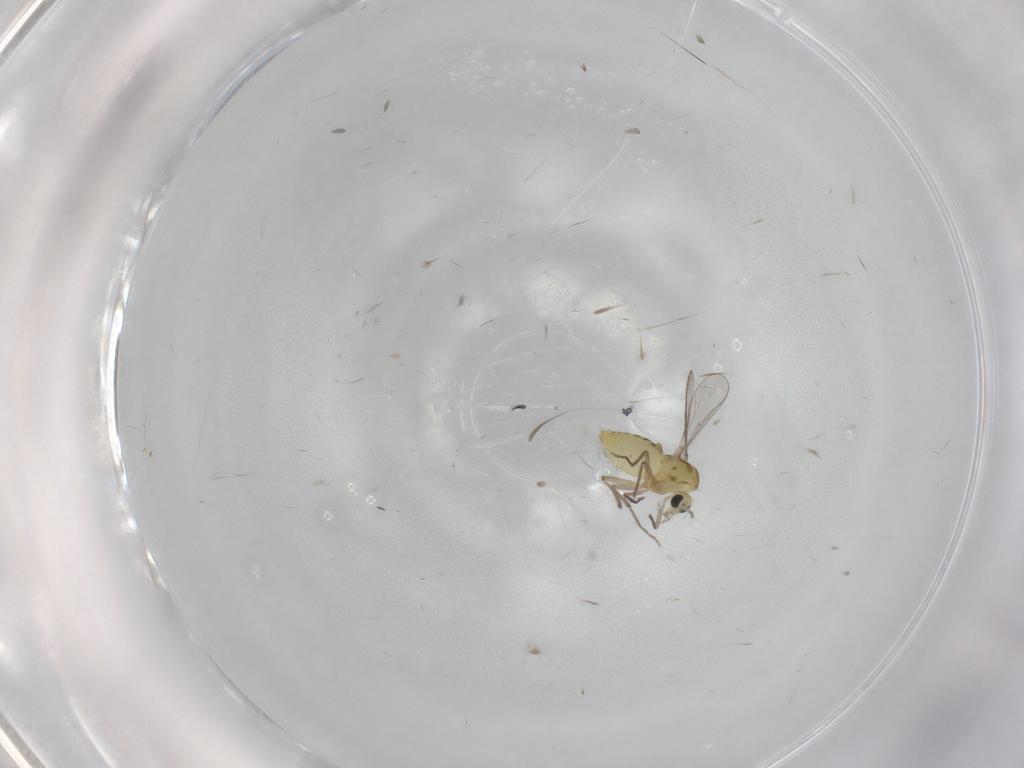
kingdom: Animalia
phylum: Arthropoda
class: Insecta
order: Diptera
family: Chironomidae
